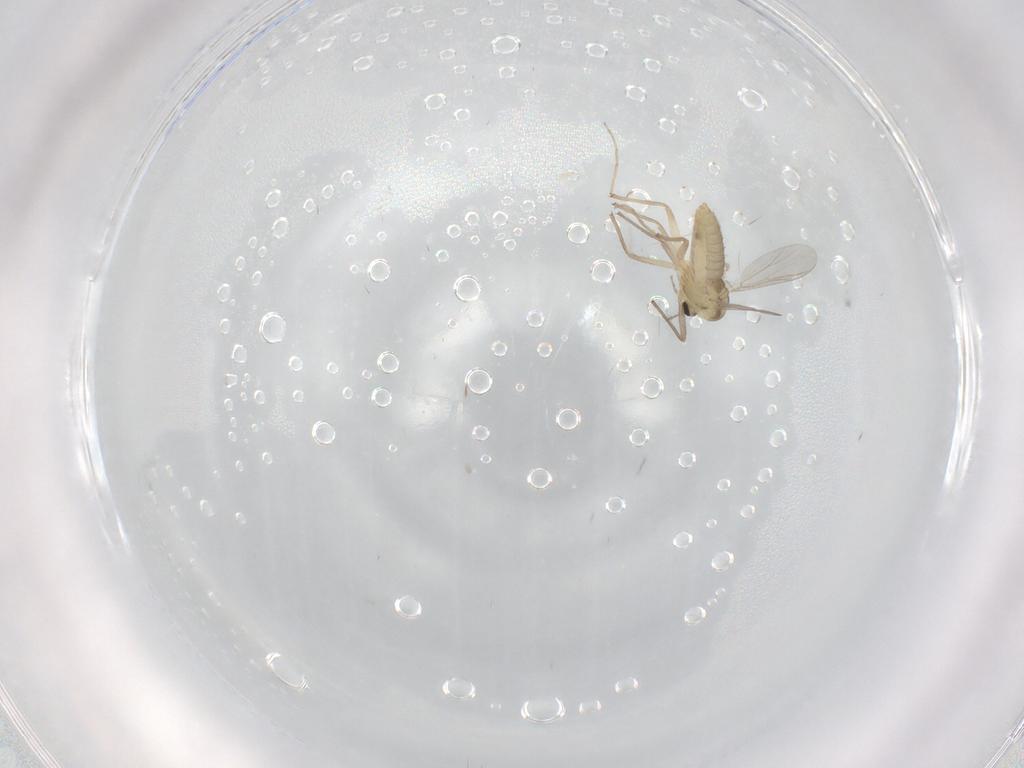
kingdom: Animalia
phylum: Arthropoda
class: Insecta
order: Diptera
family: Chironomidae
